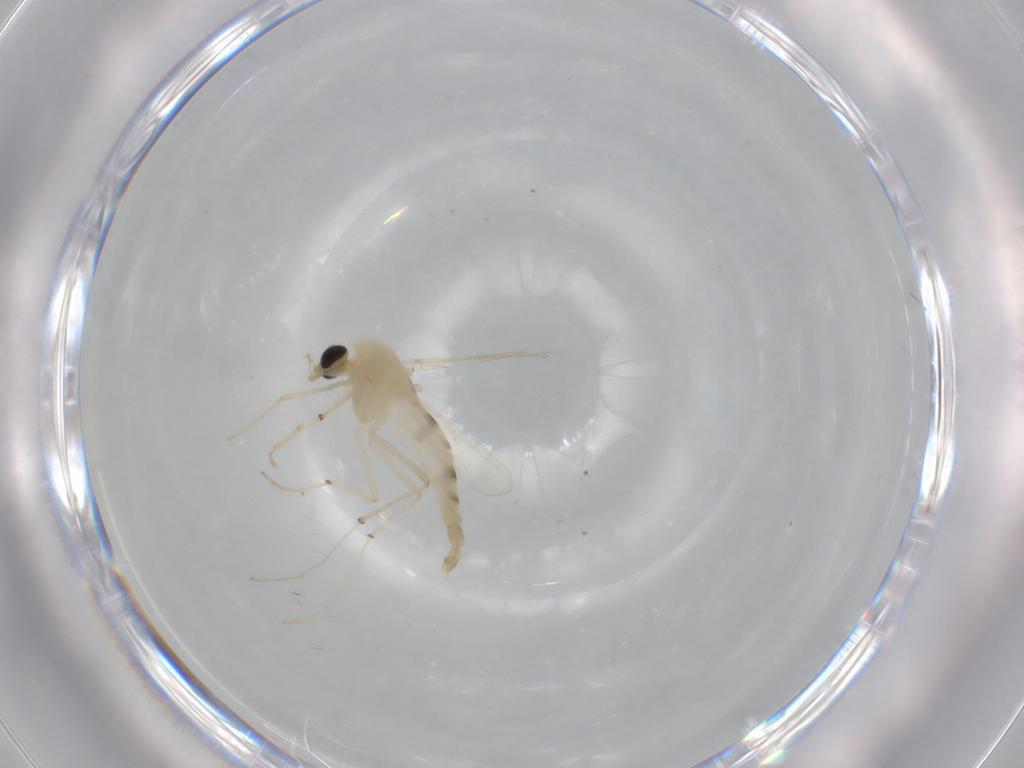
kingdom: Animalia
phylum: Arthropoda
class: Insecta
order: Diptera
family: Chironomidae
